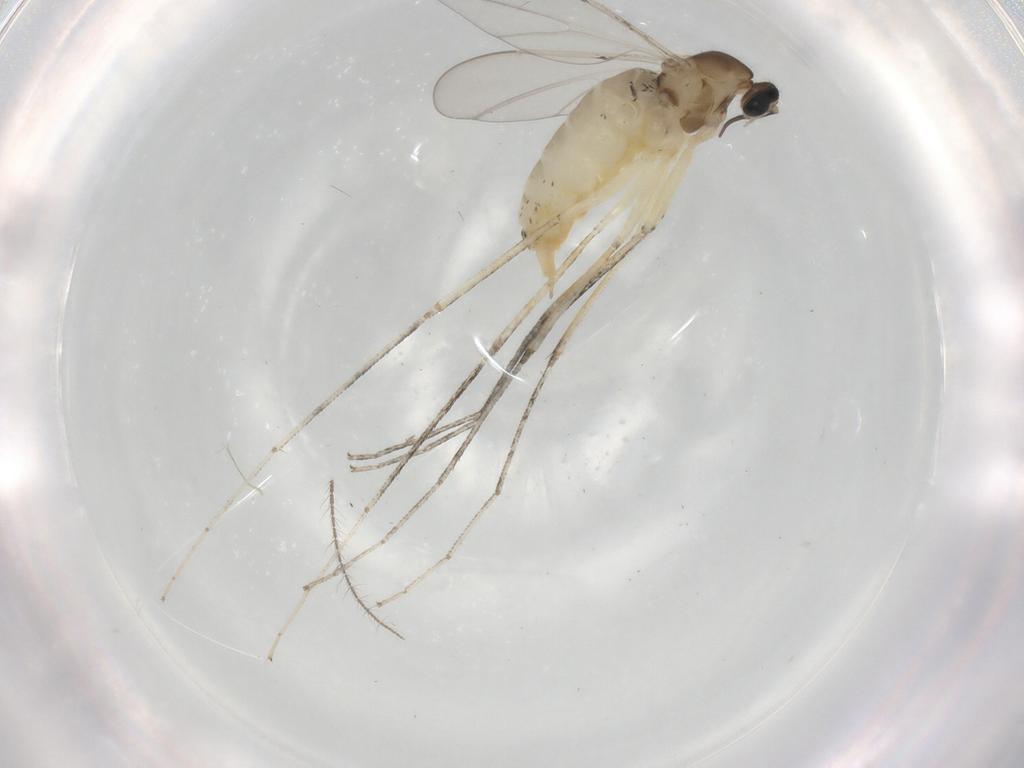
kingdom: Animalia
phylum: Arthropoda
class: Insecta
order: Diptera
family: Cecidomyiidae
